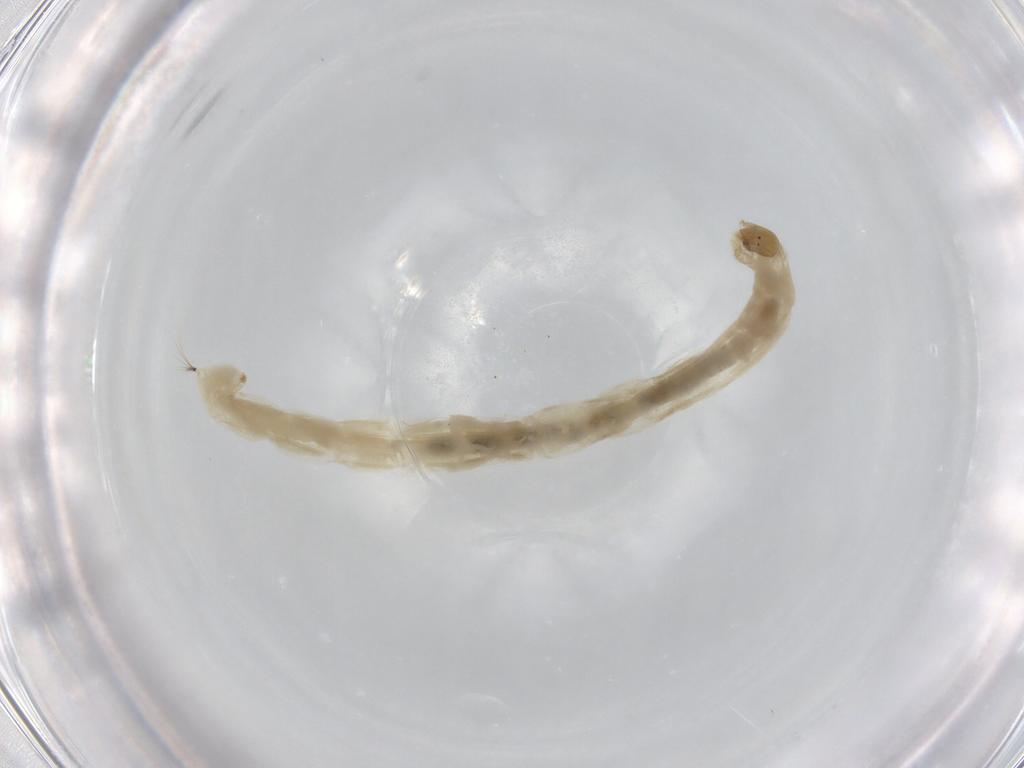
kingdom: Animalia
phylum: Arthropoda
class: Insecta
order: Diptera
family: Chironomidae
